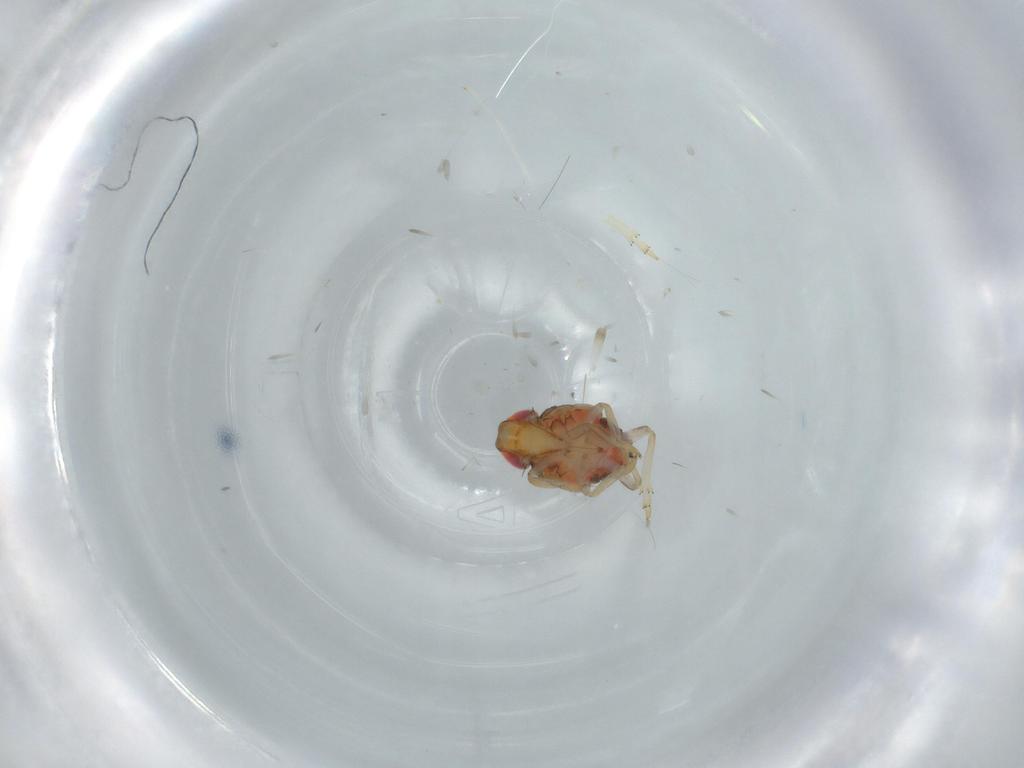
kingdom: Animalia
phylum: Arthropoda
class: Insecta
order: Hemiptera
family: Issidae
